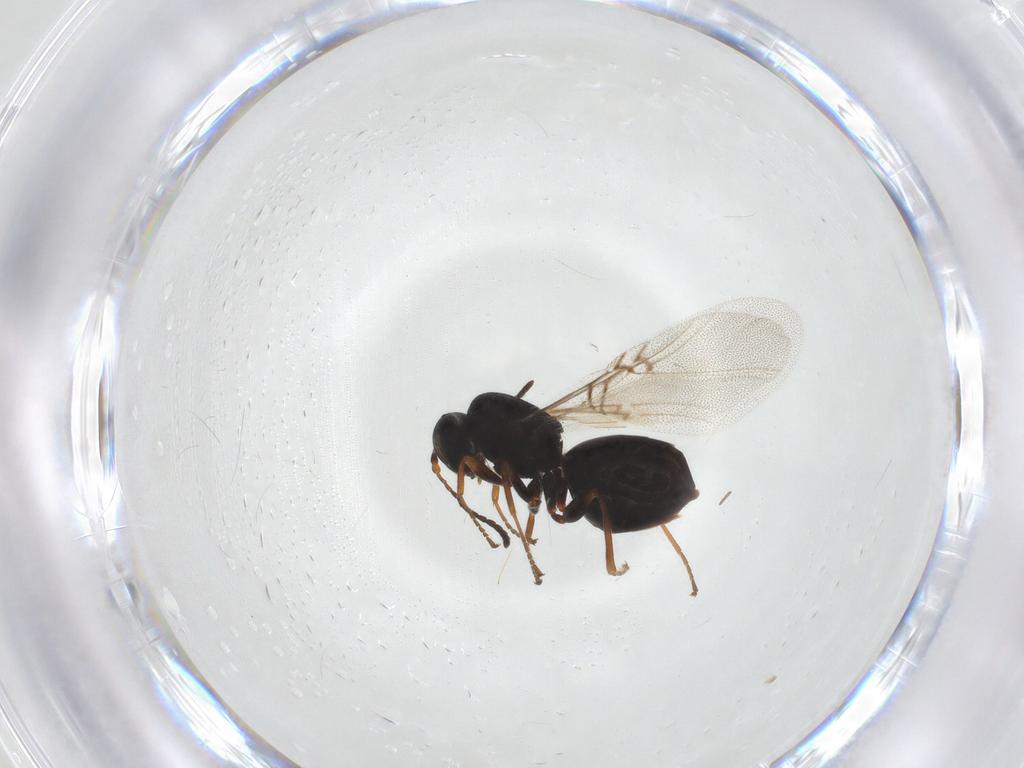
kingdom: Animalia
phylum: Arthropoda
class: Insecta
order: Hymenoptera
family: Cynipidae
